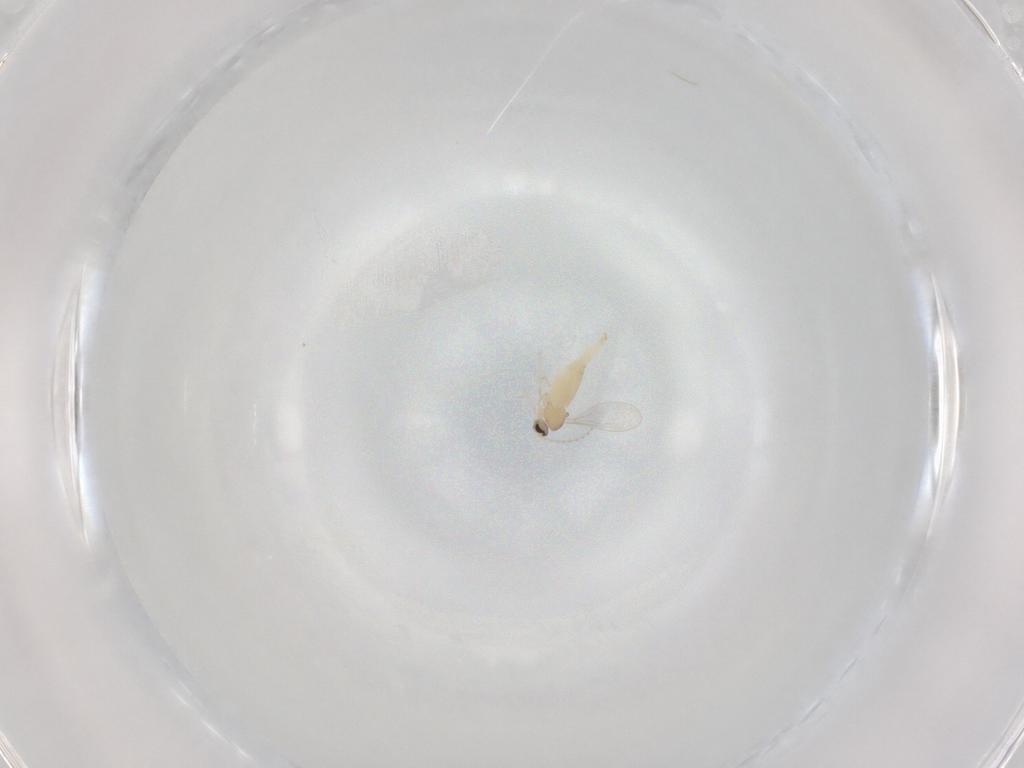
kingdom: Animalia
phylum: Arthropoda
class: Insecta
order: Diptera
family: Cecidomyiidae
